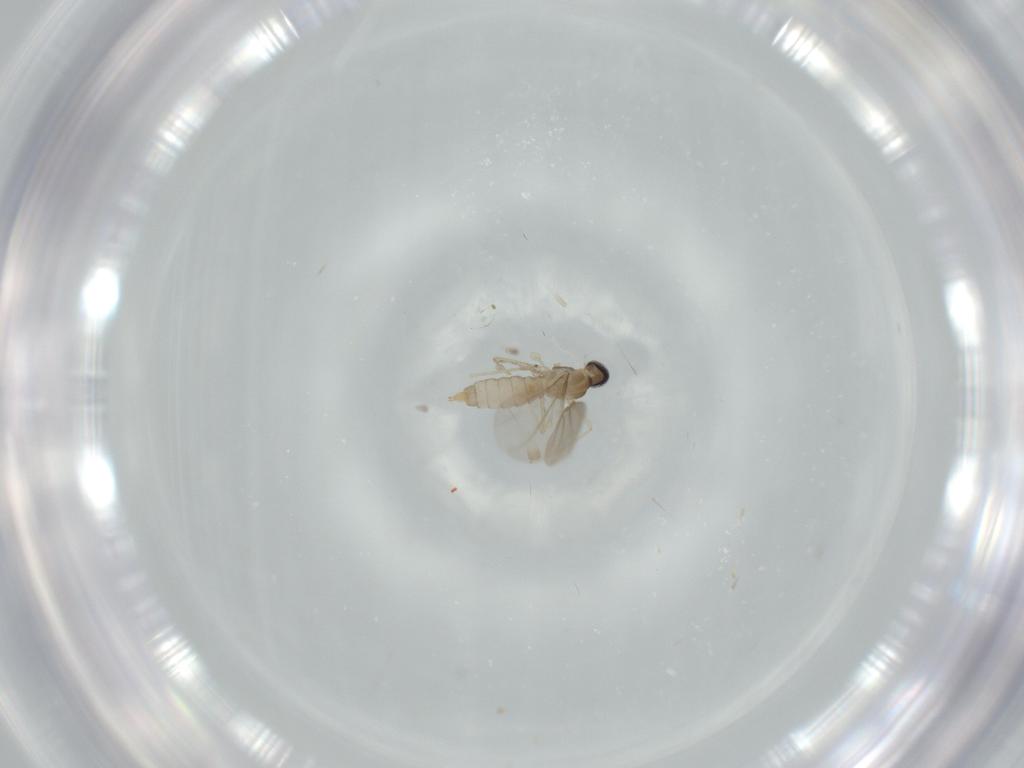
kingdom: Animalia
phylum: Arthropoda
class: Insecta
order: Diptera
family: Cecidomyiidae
